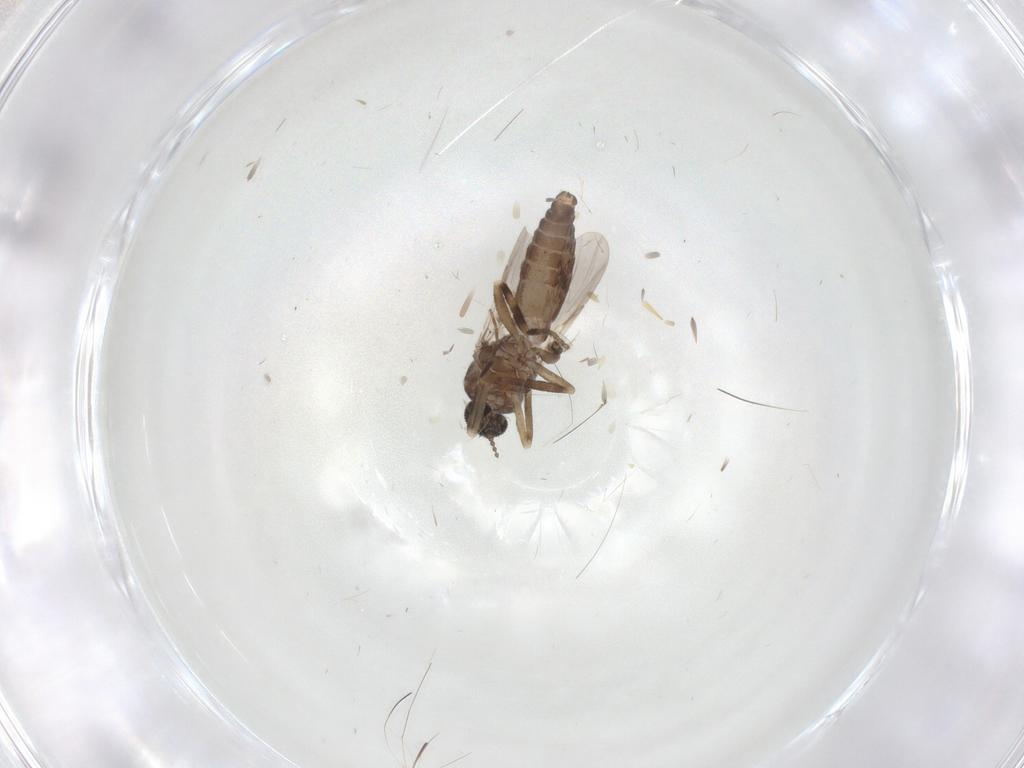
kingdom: Animalia
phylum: Arthropoda
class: Insecta
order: Diptera
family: Ceratopogonidae
